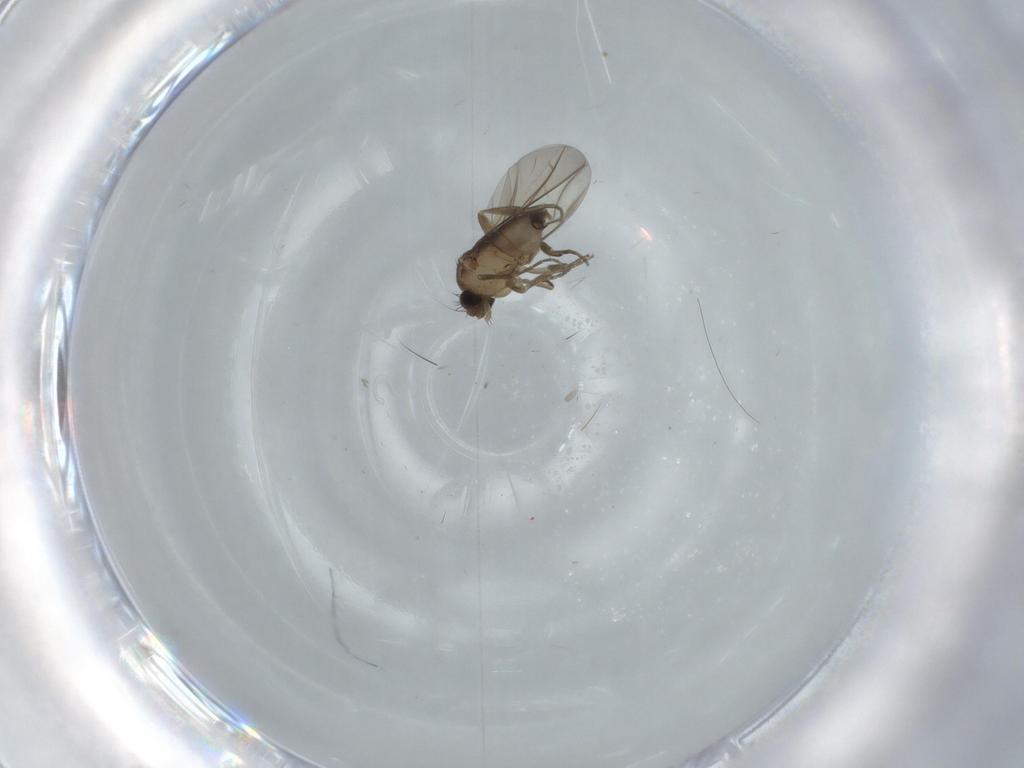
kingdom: Animalia
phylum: Arthropoda
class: Insecta
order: Diptera
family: Phoridae
